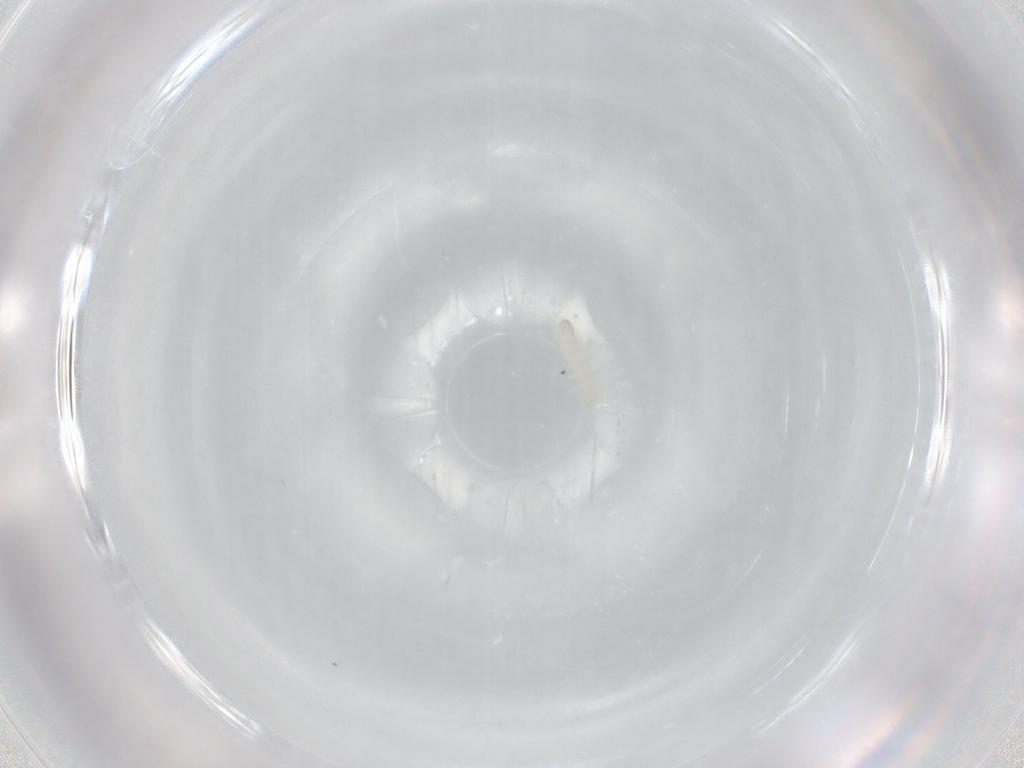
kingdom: Animalia
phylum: Arthropoda
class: Collembola
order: Entomobryomorpha
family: Isotomidae
